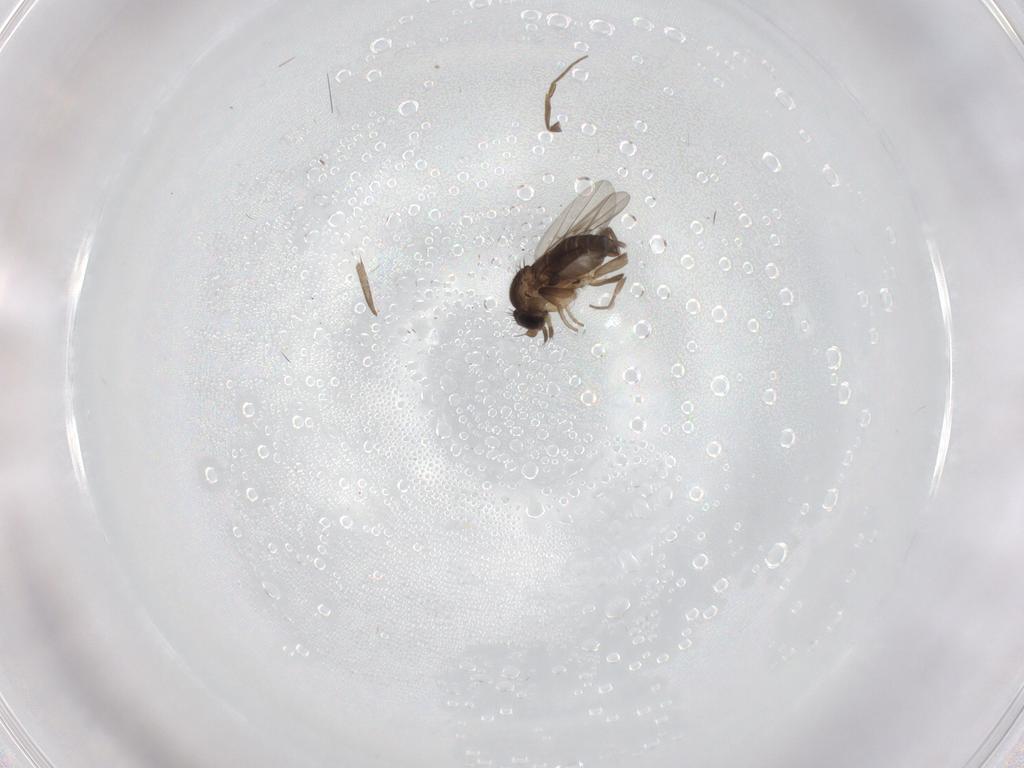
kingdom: Animalia
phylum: Arthropoda
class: Insecta
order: Diptera
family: Phoridae
